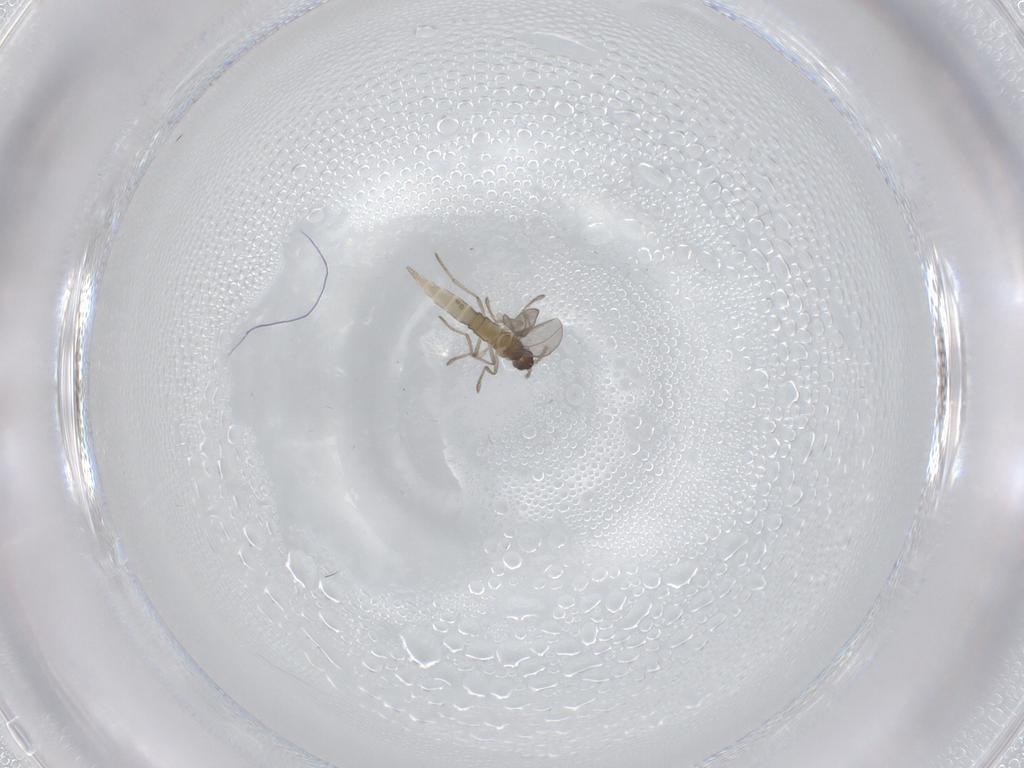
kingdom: Animalia
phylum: Arthropoda
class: Insecta
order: Diptera
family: Cecidomyiidae
